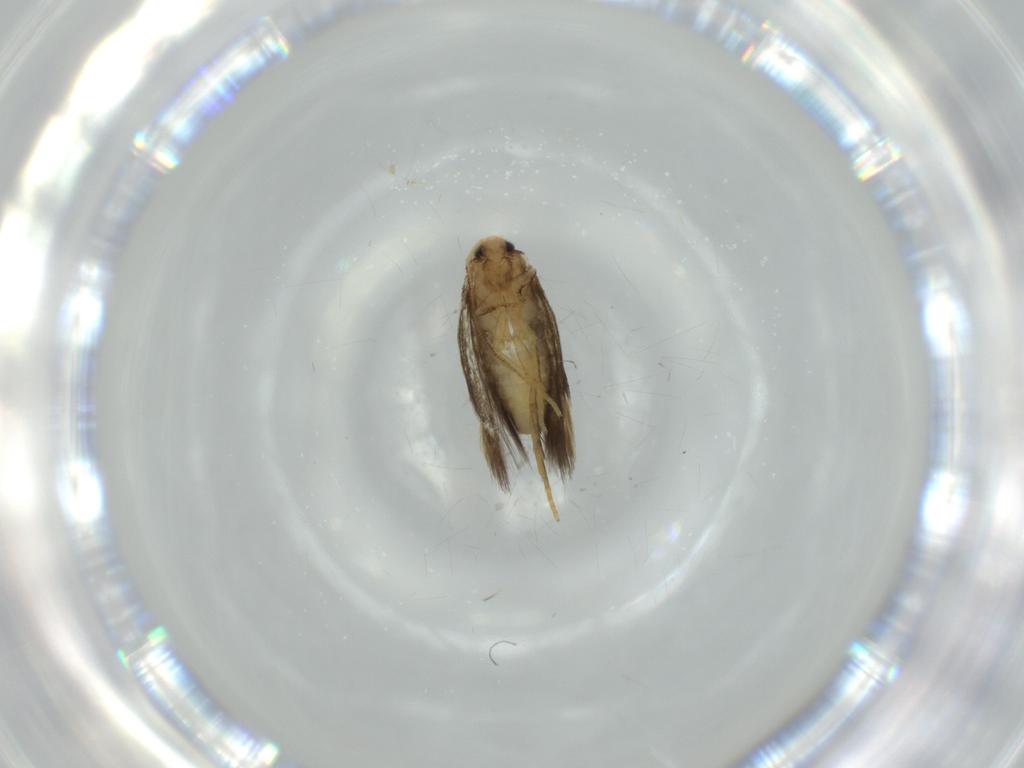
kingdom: Animalia
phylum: Arthropoda
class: Insecta
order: Lepidoptera
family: Nepticulidae
